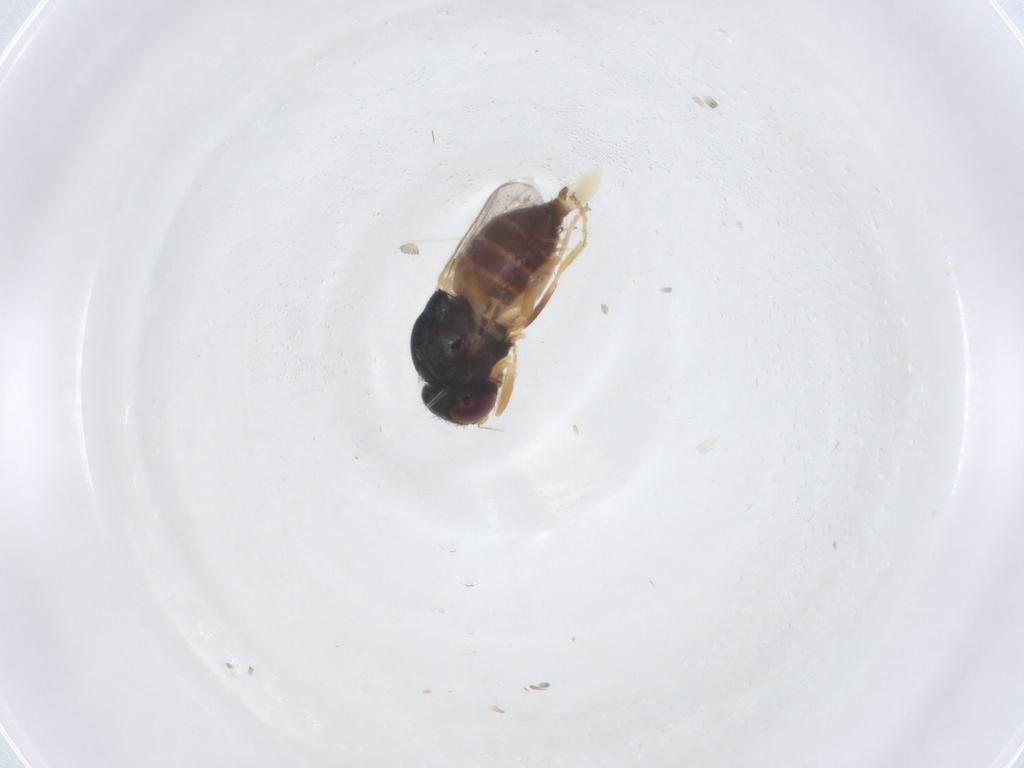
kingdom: Animalia
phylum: Arthropoda
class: Insecta
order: Diptera
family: Chloropidae
